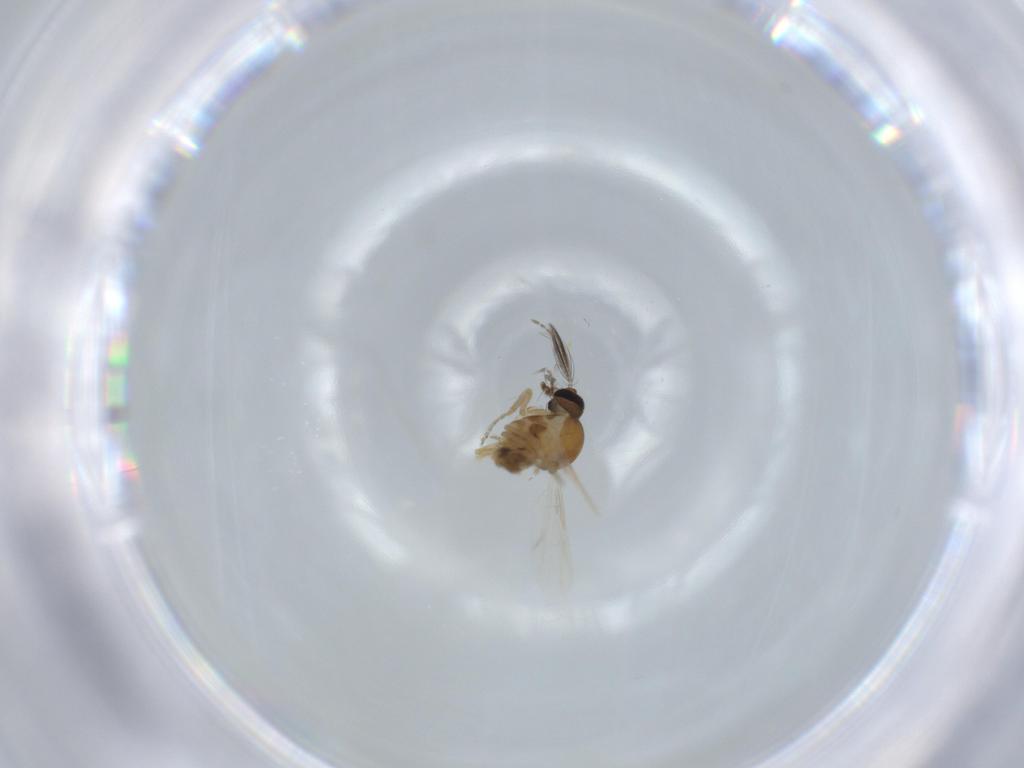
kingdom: Animalia
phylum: Arthropoda
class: Insecta
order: Diptera
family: Ceratopogonidae
